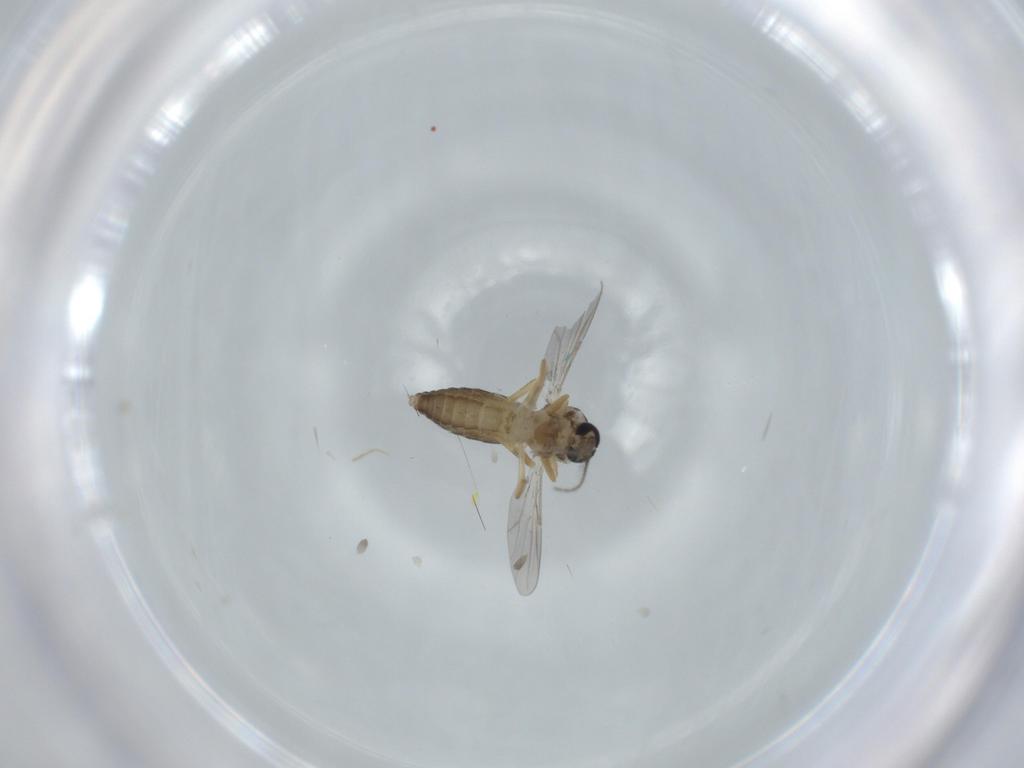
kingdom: Animalia
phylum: Arthropoda
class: Insecta
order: Diptera
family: Ceratopogonidae
